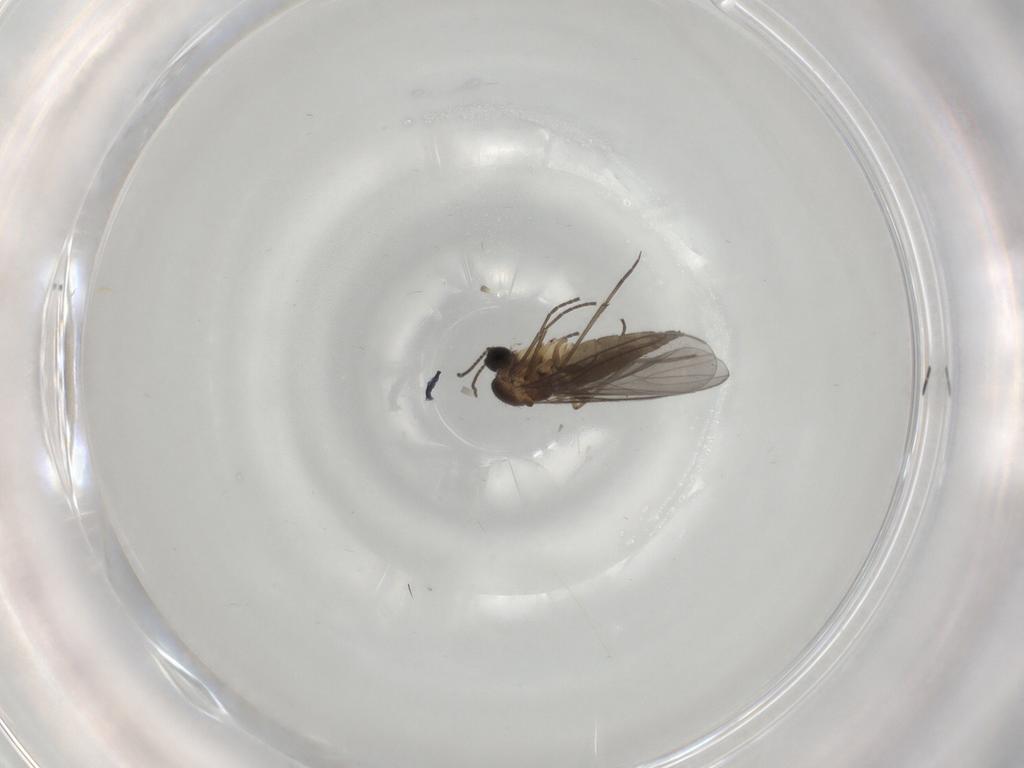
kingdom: Animalia
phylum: Arthropoda
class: Insecta
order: Diptera
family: Sciaridae
